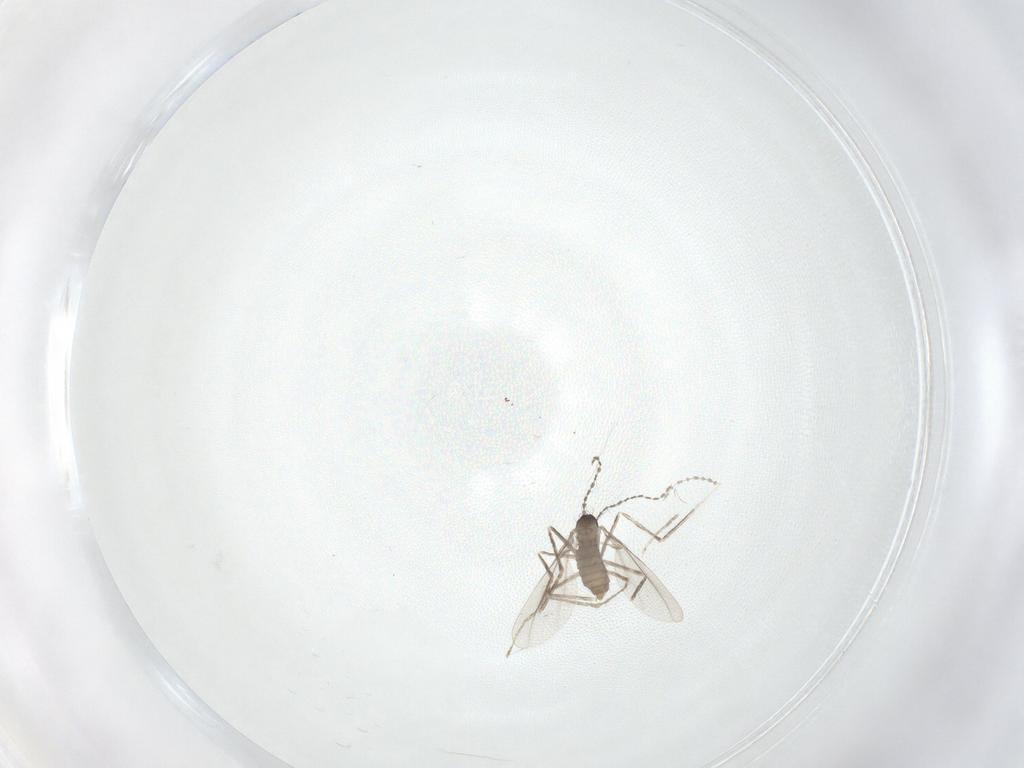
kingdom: Animalia
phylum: Arthropoda
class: Insecta
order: Diptera
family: Cecidomyiidae
